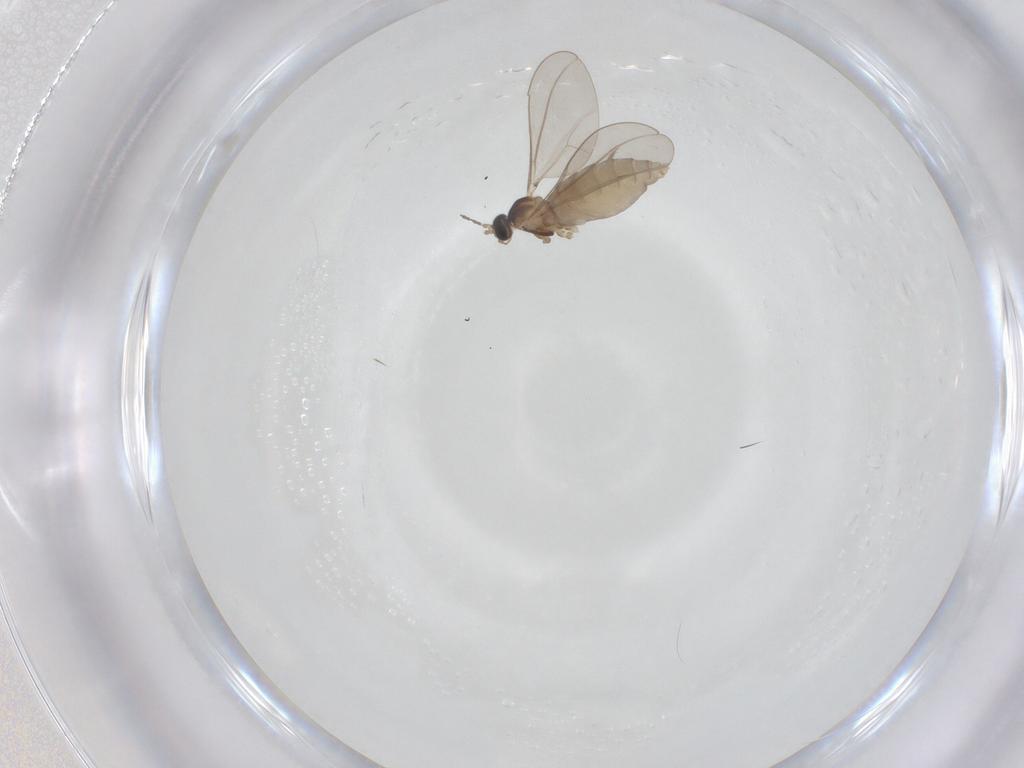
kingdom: Animalia
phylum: Arthropoda
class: Insecta
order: Diptera
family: Cecidomyiidae
